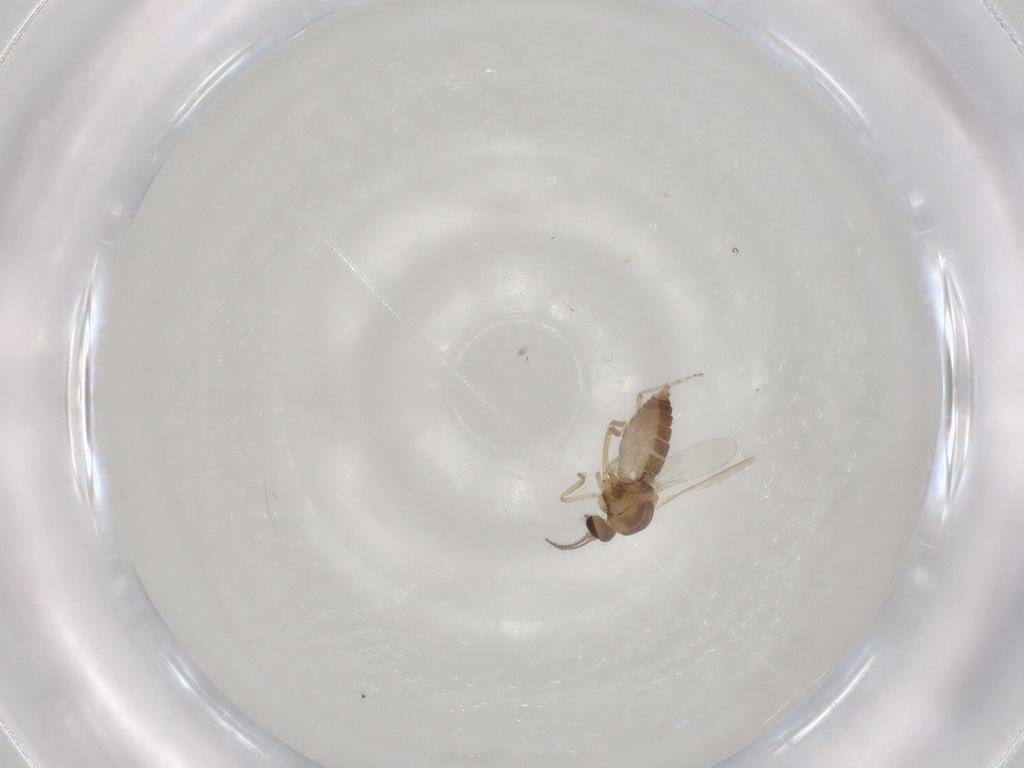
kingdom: Animalia
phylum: Arthropoda
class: Insecta
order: Diptera
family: Ceratopogonidae
